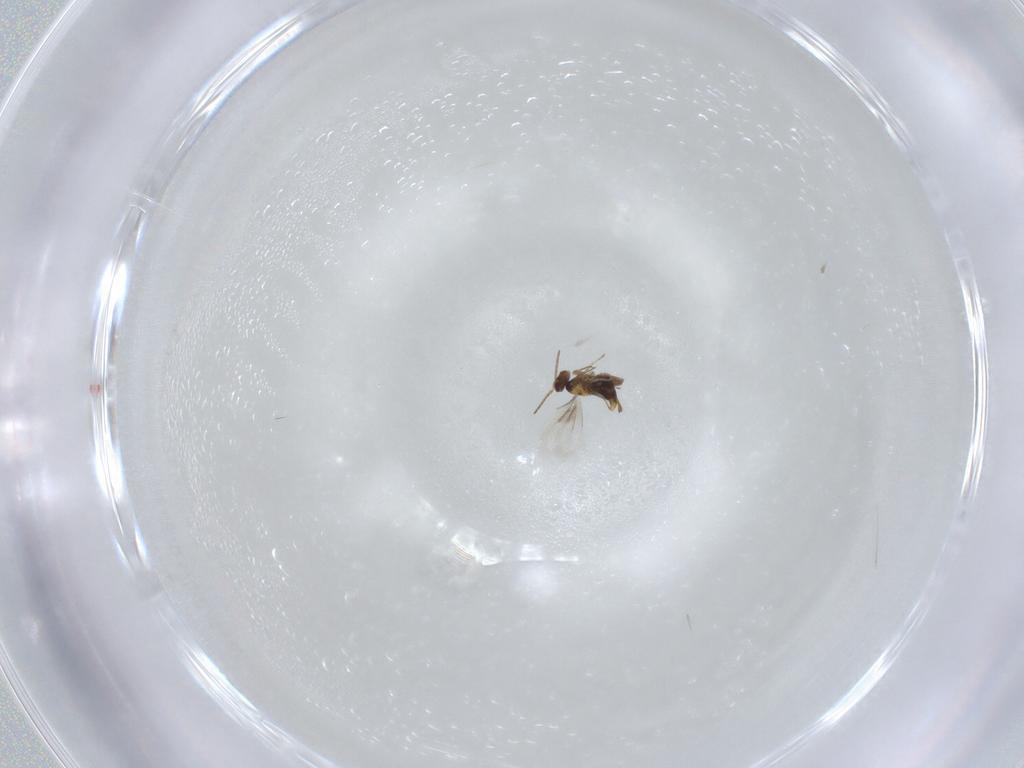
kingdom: Animalia
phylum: Arthropoda
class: Insecta
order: Hymenoptera
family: Aphelinidae
